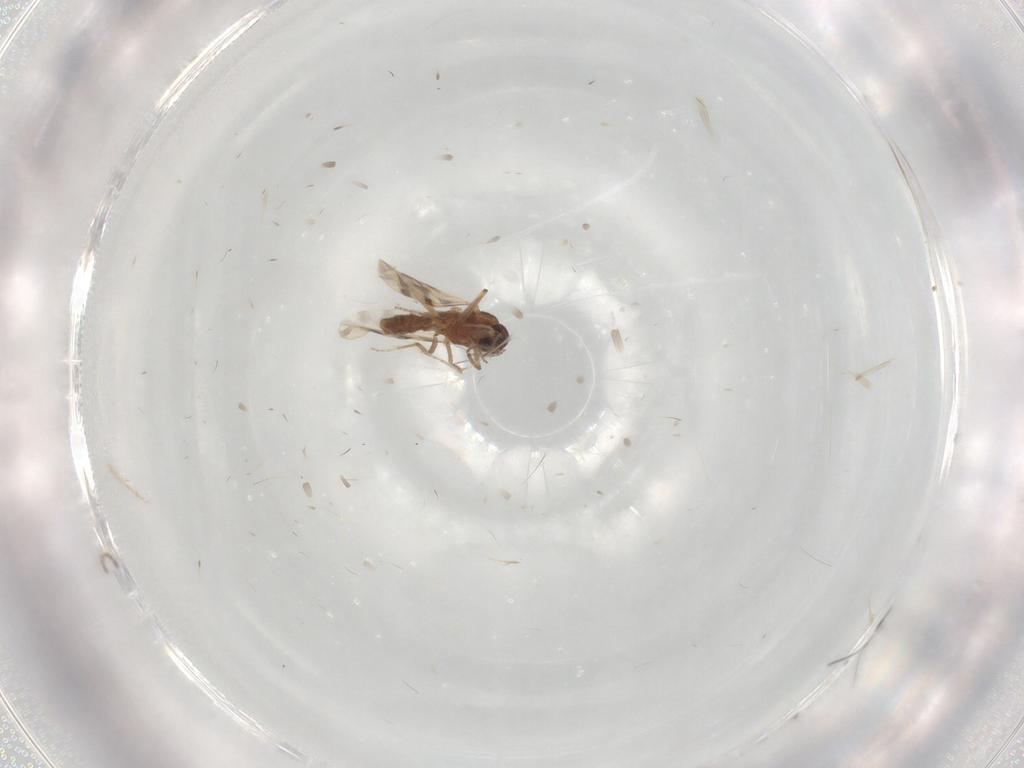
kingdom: Animalia
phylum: Arthropoda
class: Insecta
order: Diptera
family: Chironomidae
